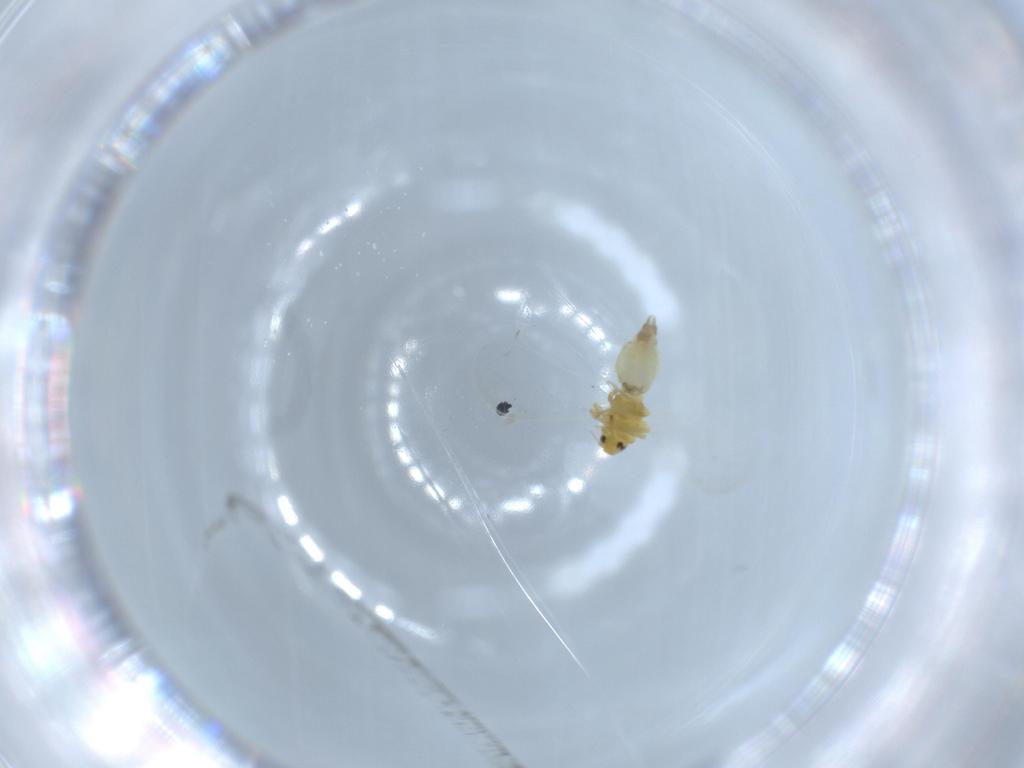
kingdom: Animalia
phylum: Arthropoda
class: Insecta
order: Hemiptera
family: Aleyrodidae
